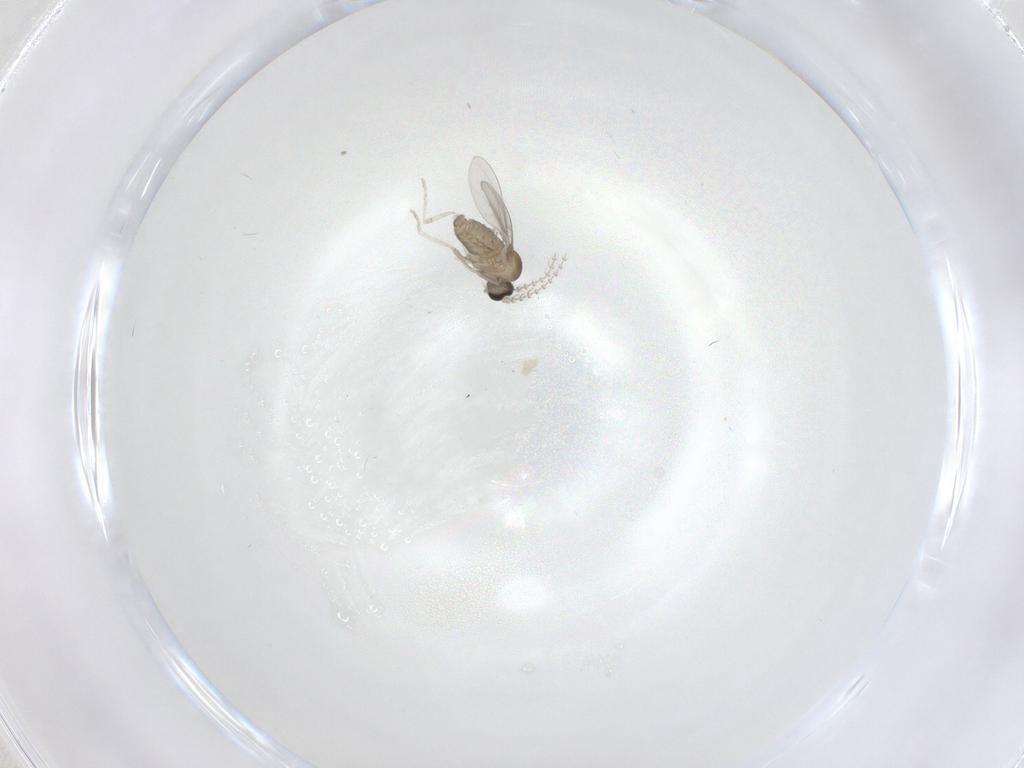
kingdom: Animalia
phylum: Arthropoda
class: Insecta
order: Diptera
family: Cecidomyiidae
